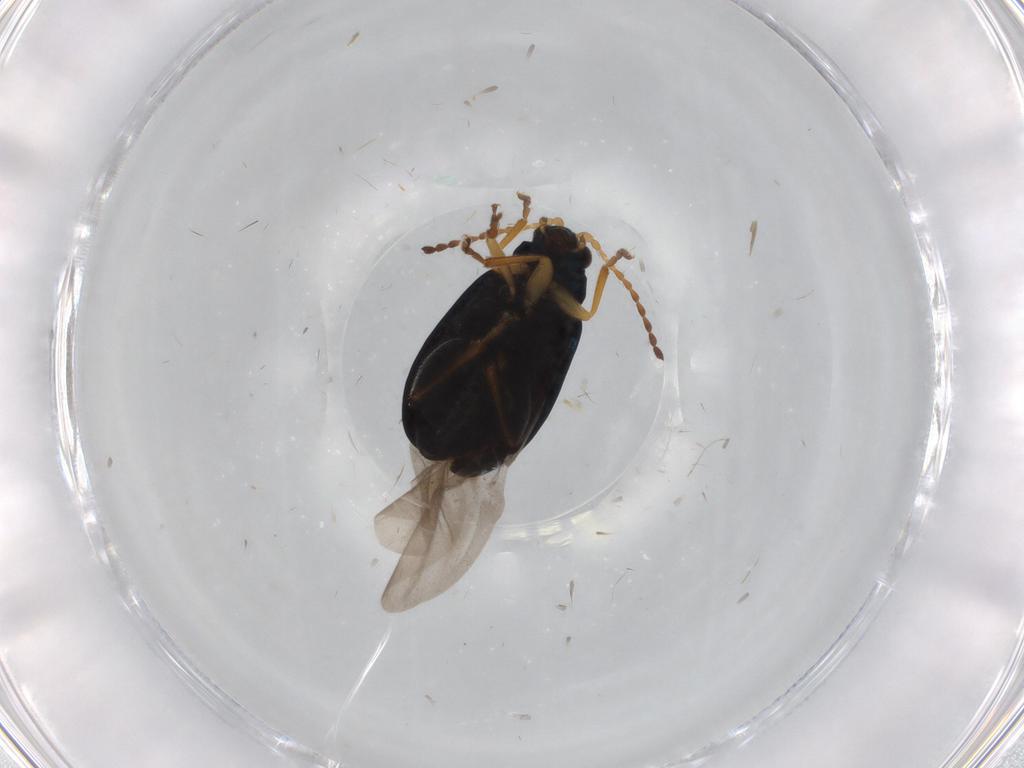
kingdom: Animalia
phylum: Arthropoda
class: Insecta
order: Coleoptera
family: Chrysomelidae
